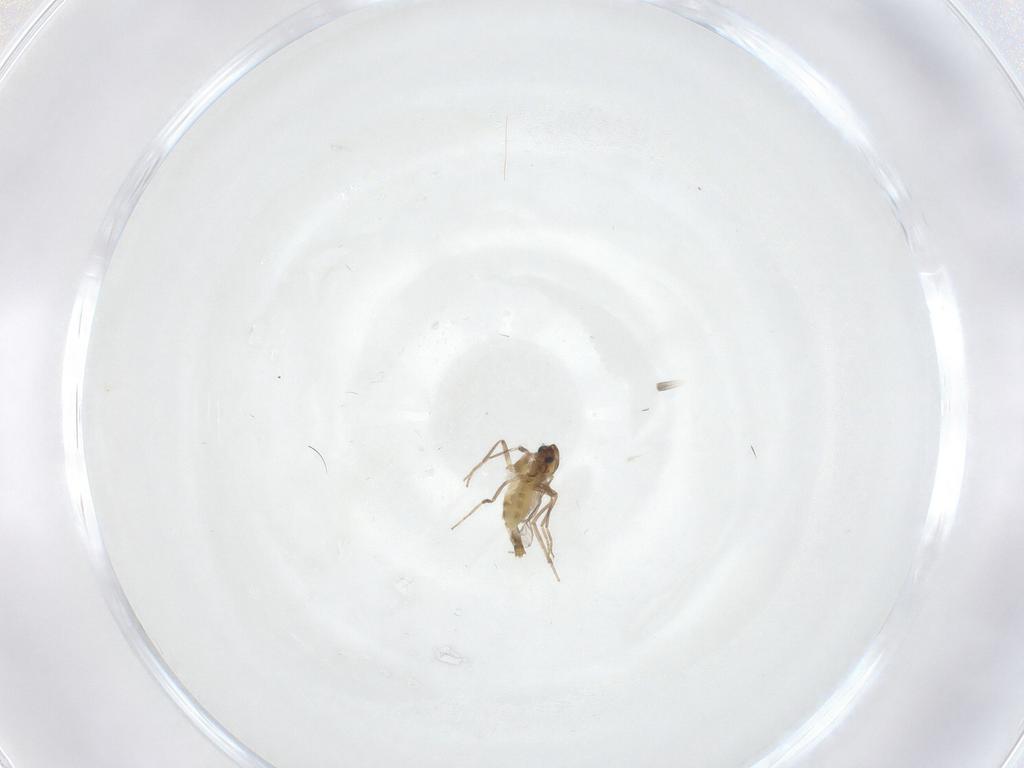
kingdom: Animalia
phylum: Arthropoda
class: Insecta
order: Diptera
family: Chironomidae
